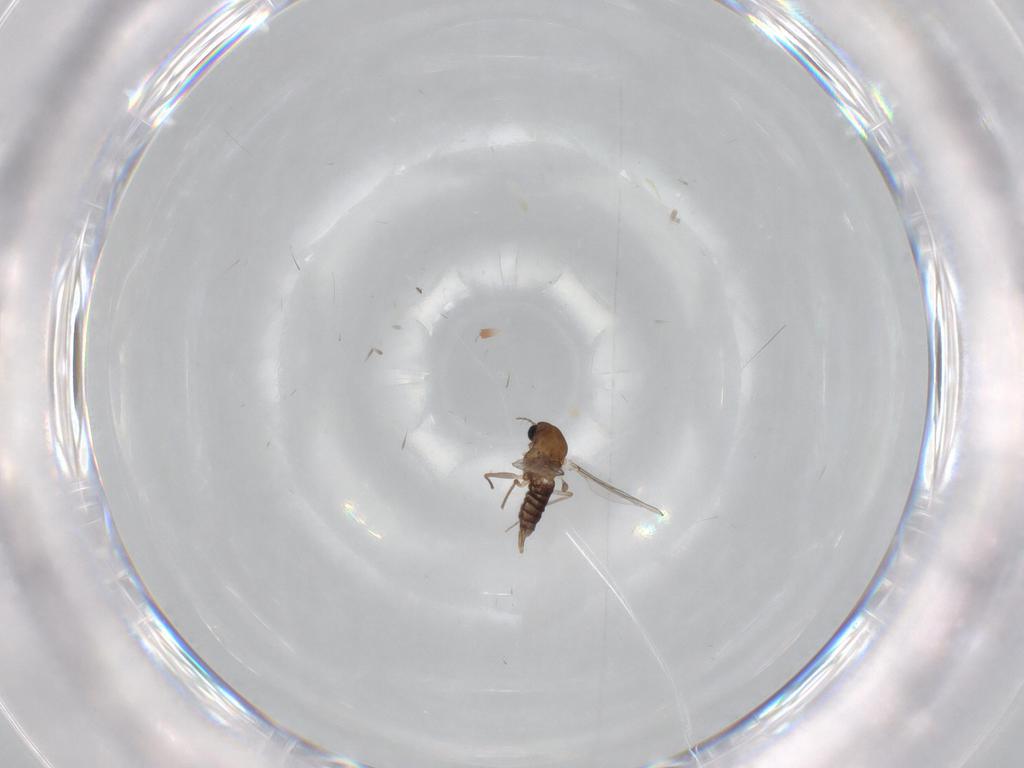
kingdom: Animalia
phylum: Arthropoda
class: Insecta
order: Diptera
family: Chironomidae
